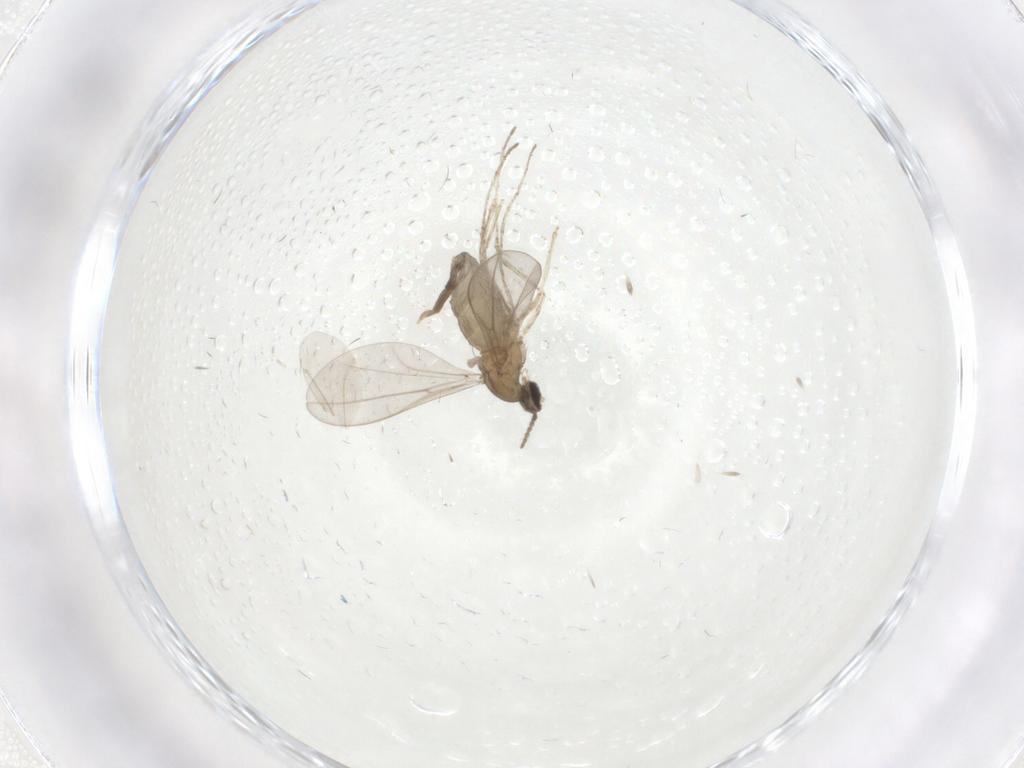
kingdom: Animalia
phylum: Arthropoda
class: Insecta
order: Diptera
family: Cecidomyiidae
